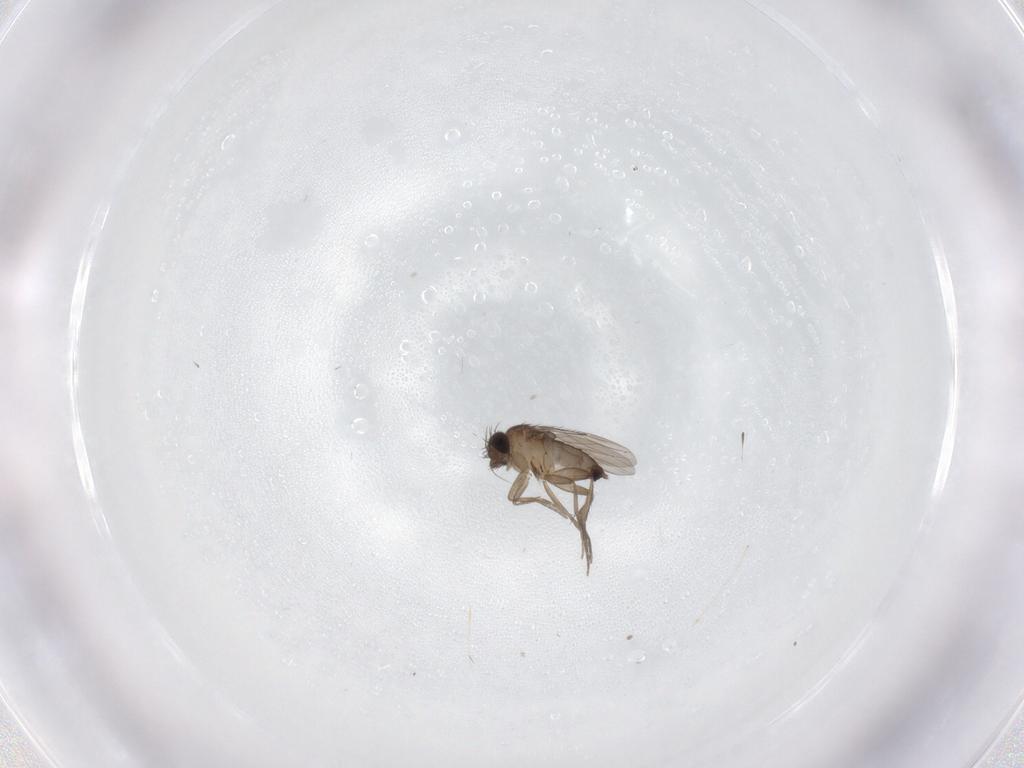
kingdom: Animalia
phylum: Arthropoda
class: Insecta
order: Diptera
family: Phoridae
